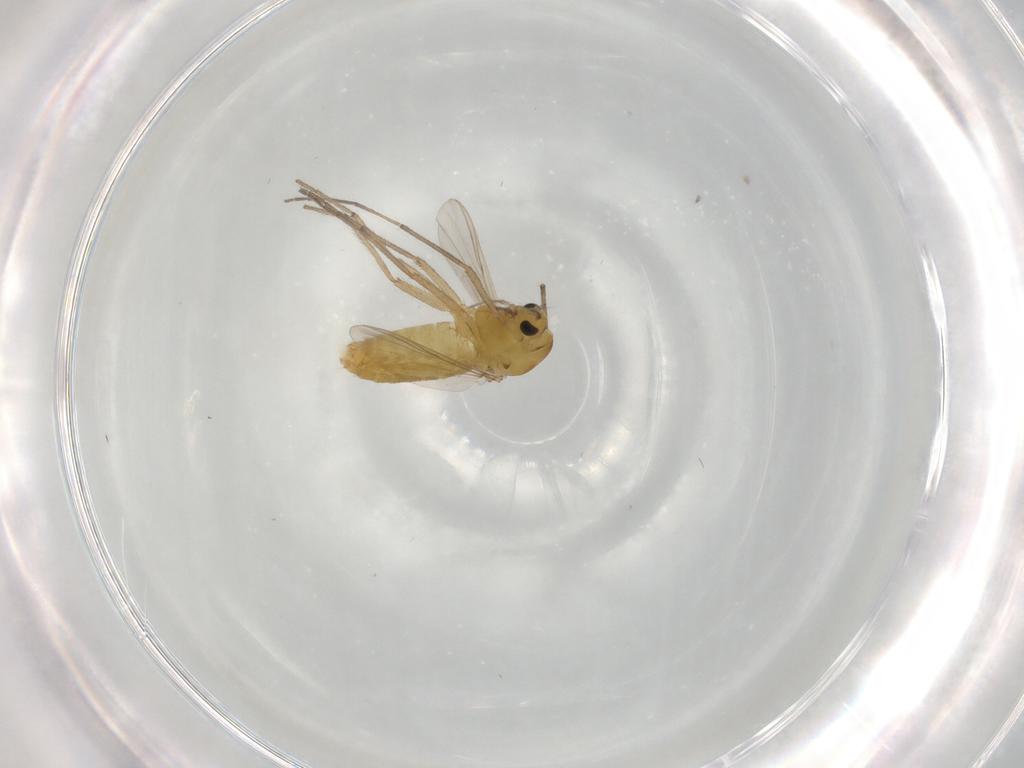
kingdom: Animalia
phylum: Arthropoda
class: Insecta
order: Diptera
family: Chironomidae
